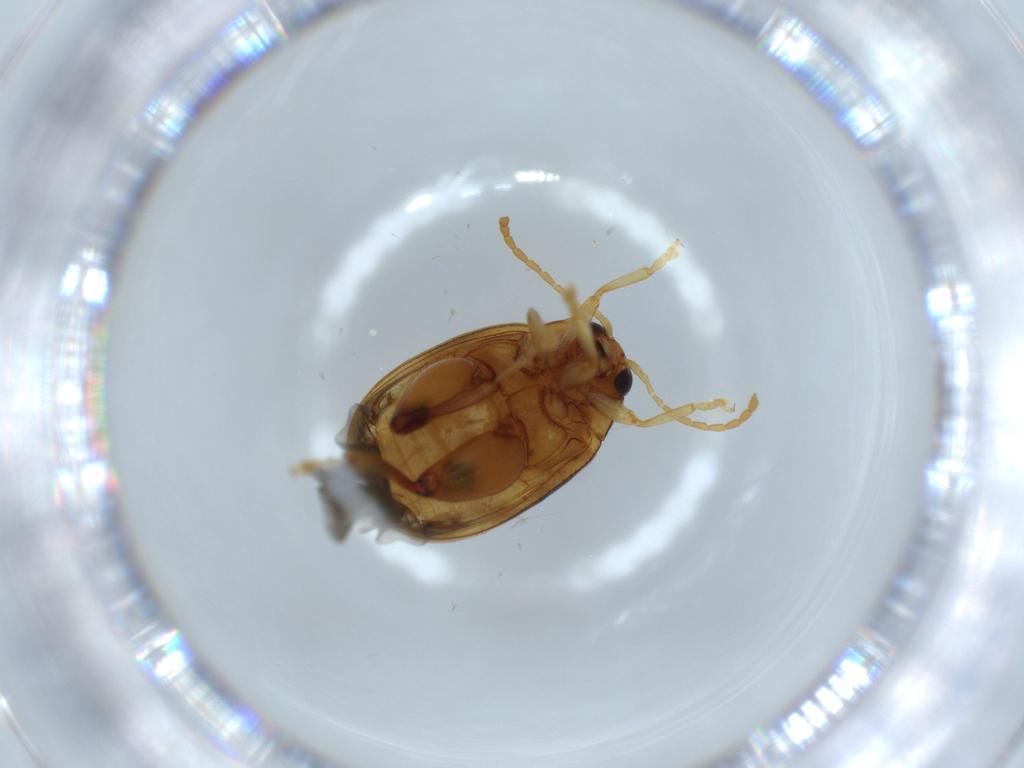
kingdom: Animalia
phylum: Arthropoda
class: Insecta
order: Coleoptera
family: Chrysomelidae
